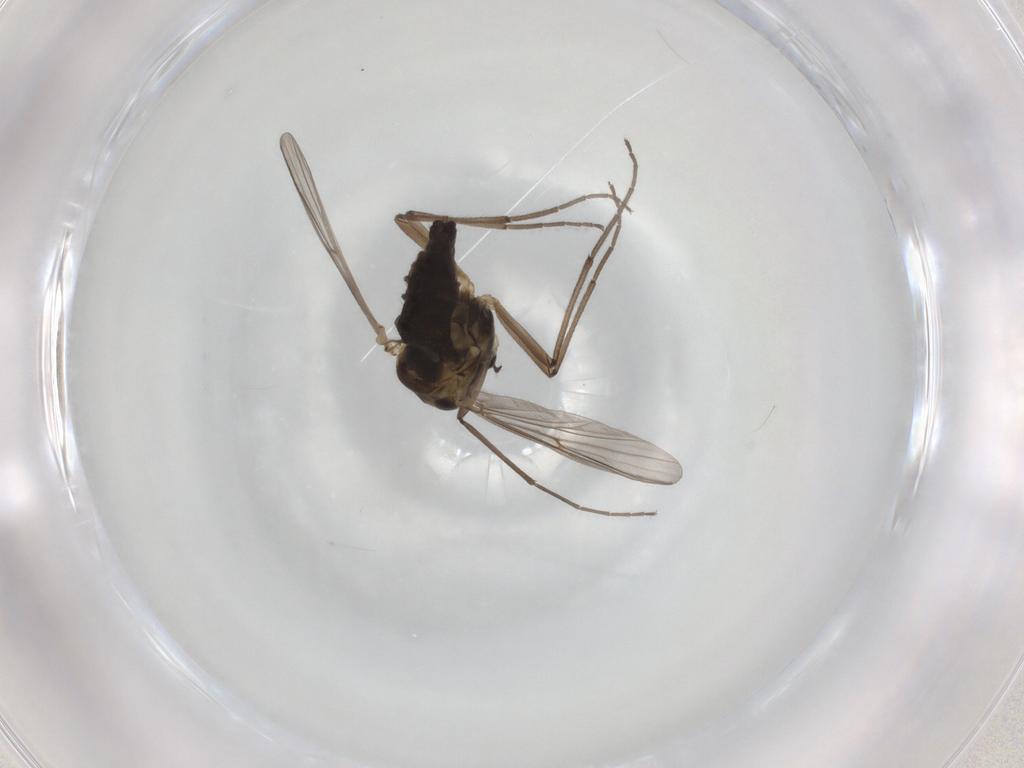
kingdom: Animalia
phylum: Arthropoda
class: Insecta
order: Diptera
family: Phoridae
